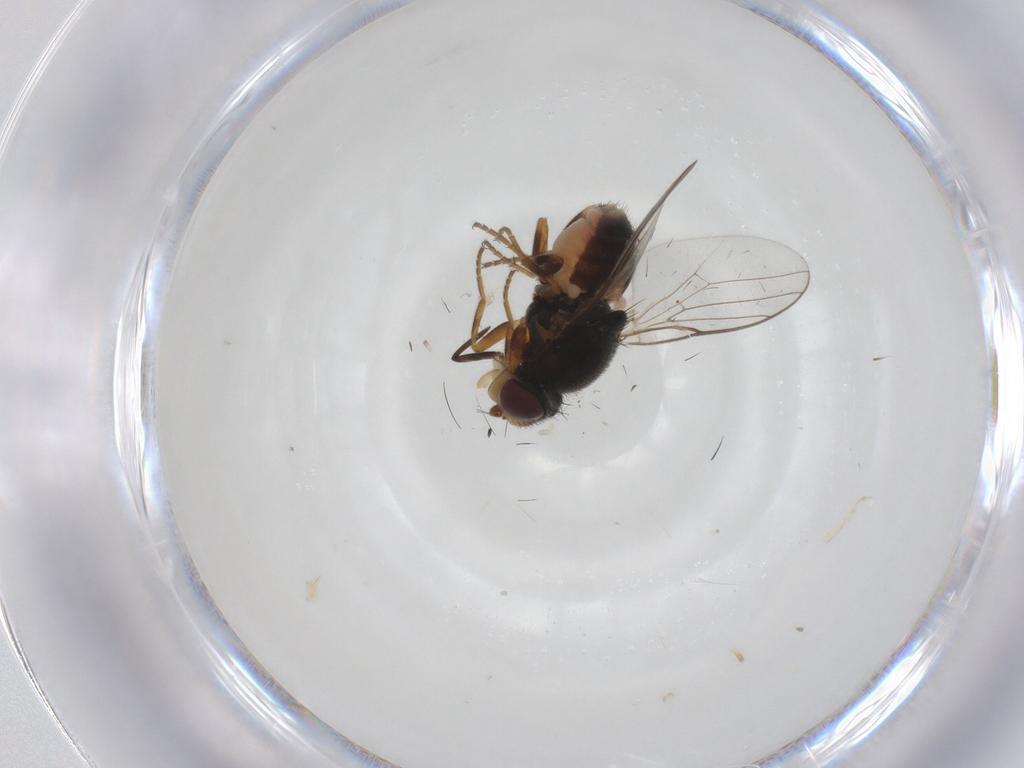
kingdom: Animalia
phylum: Arthropoda
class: Insecta
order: Diptera
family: Chloropidae
